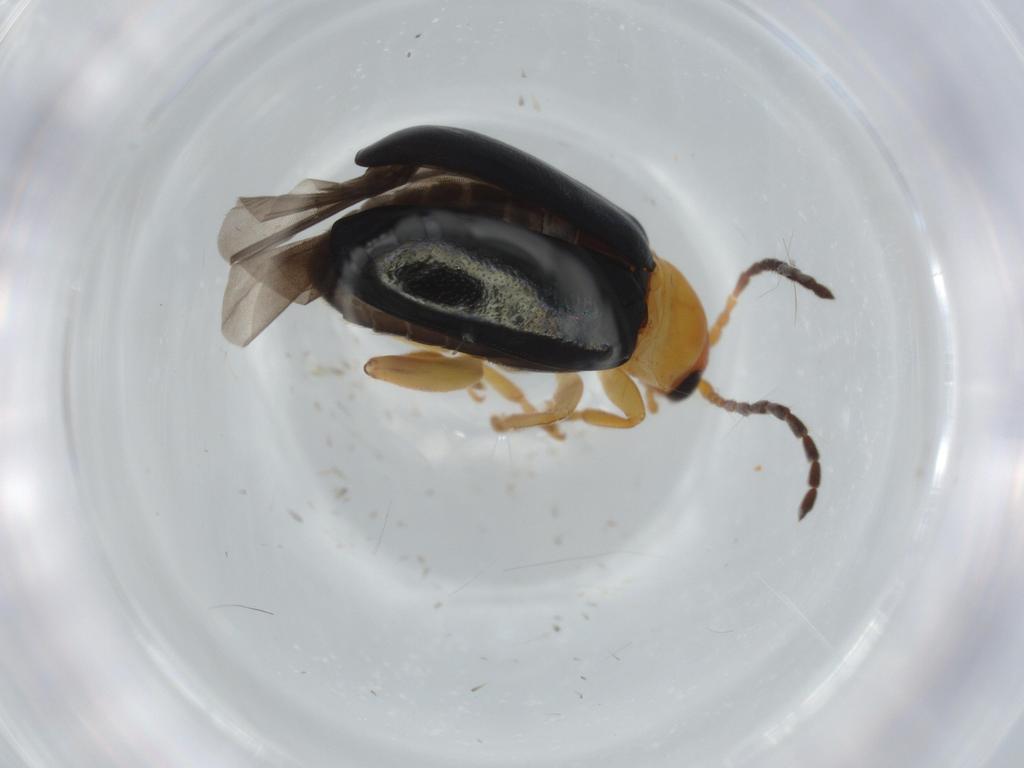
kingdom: Animalia
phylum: Arthropoda
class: Insecta
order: Coleoptera
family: Chrysomelidae
